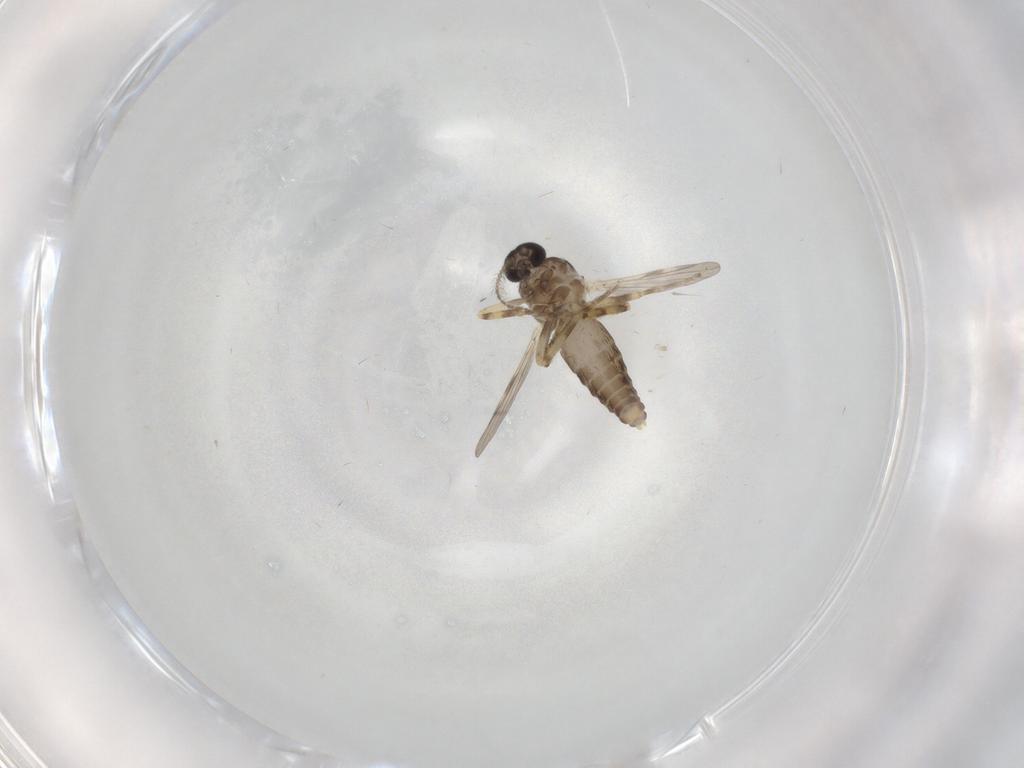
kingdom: Animalia
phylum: Arthropoda
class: Insecta
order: Diptera
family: Ceratopogonidae
